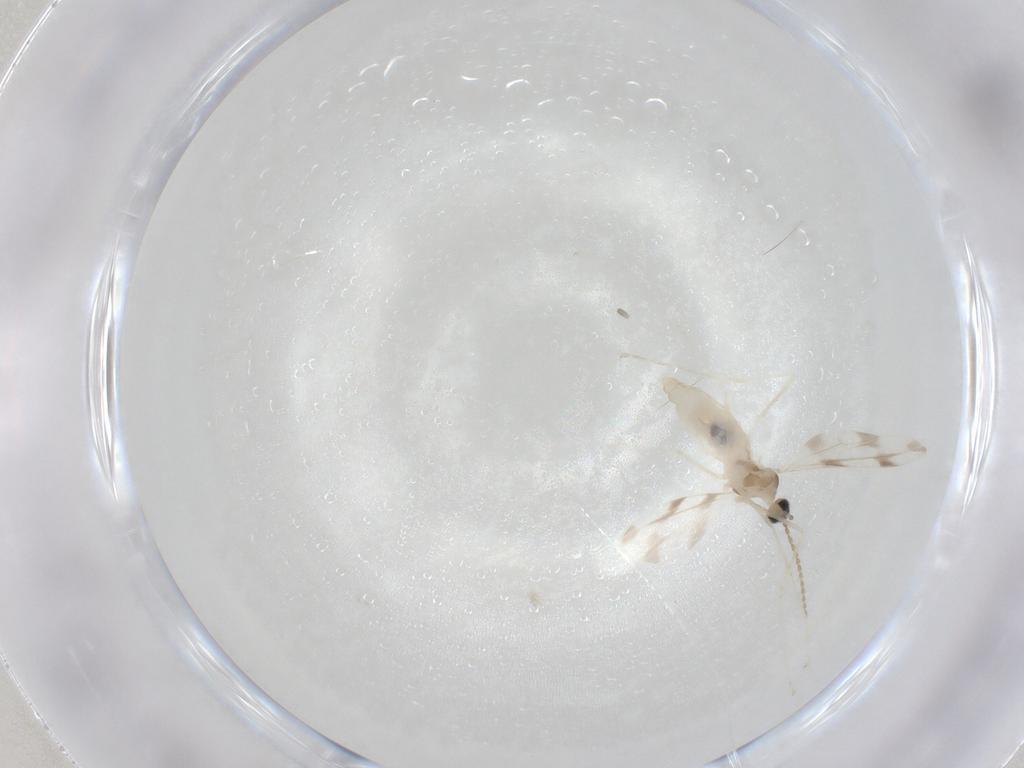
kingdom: Animalia
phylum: Arthropoda
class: Insecta
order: Diptera
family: Cecidomyiidae
